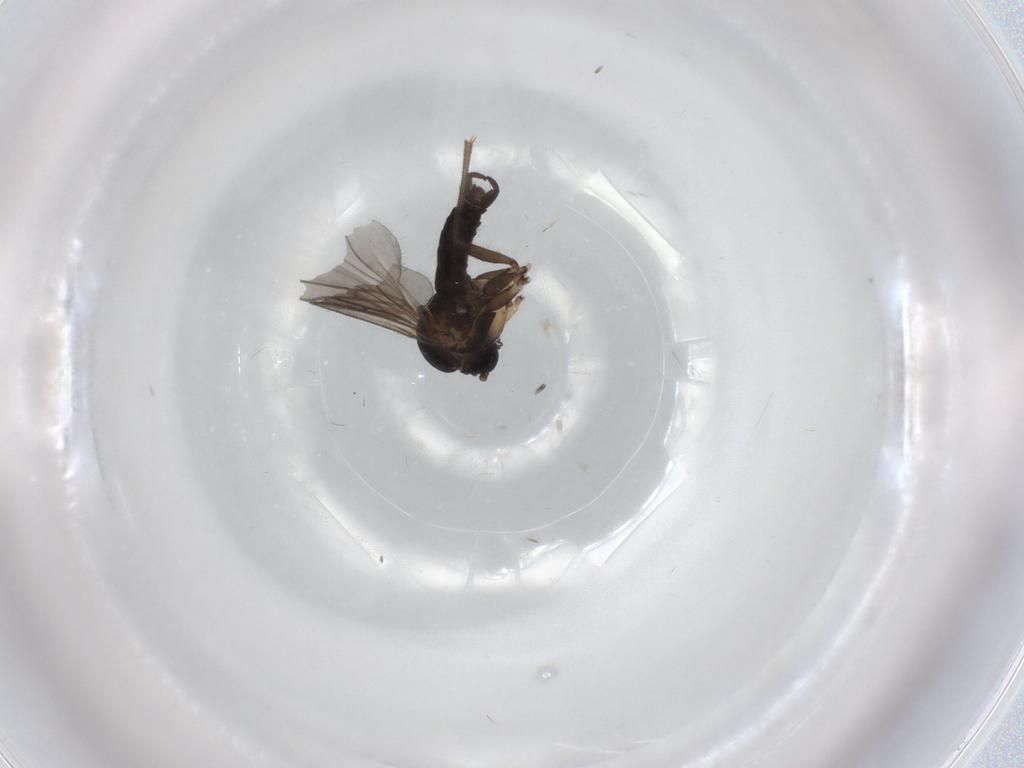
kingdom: Animalia
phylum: Arthropoda
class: Insecta
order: Diptera
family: Sciaridae
